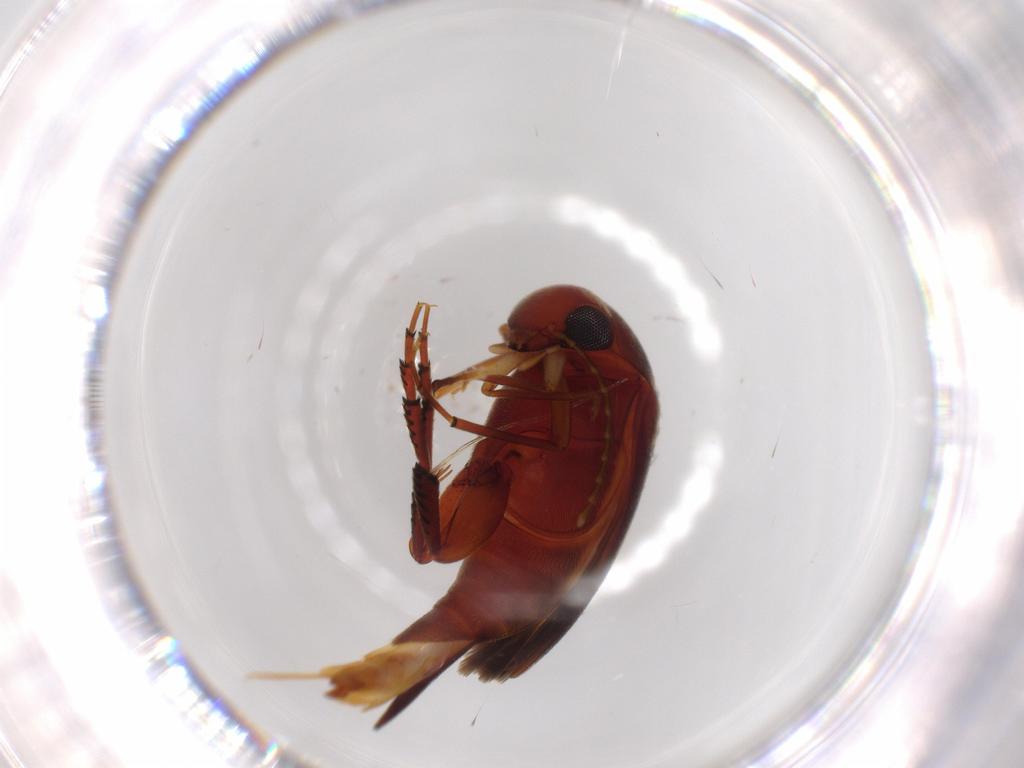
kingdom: Animalia
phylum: Arthropoda
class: Insecta
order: Coleoptera
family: Chrysomelidae
